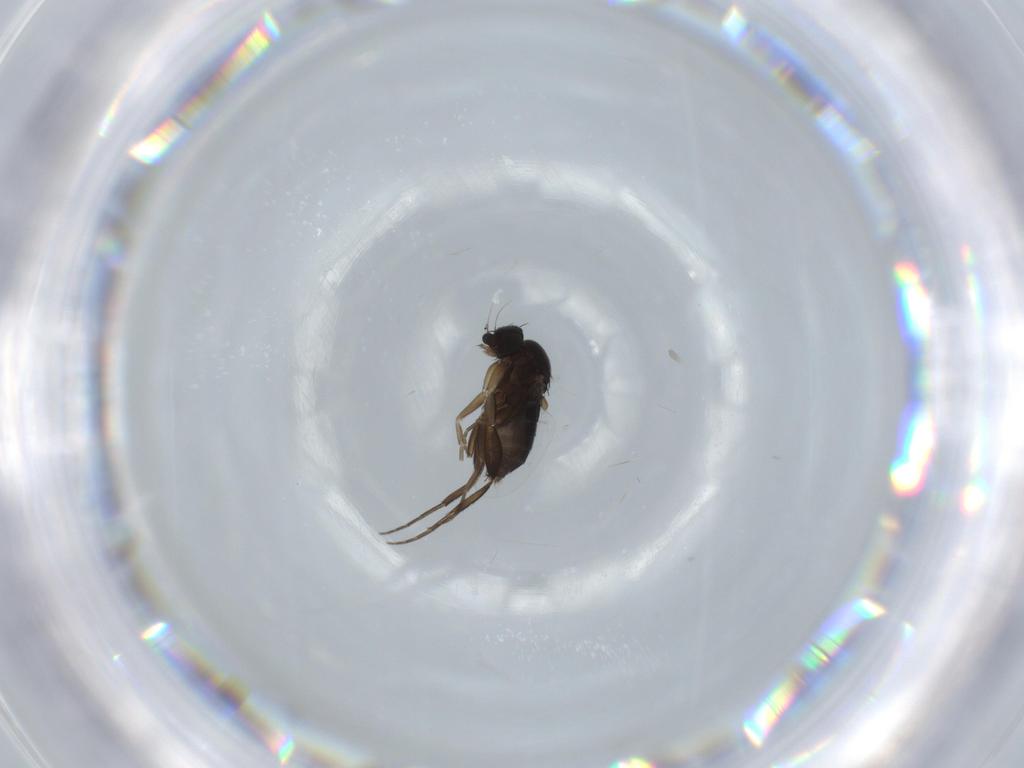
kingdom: Animalia
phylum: Arthropoda
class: Insecta
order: Diptera
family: Phoridae
